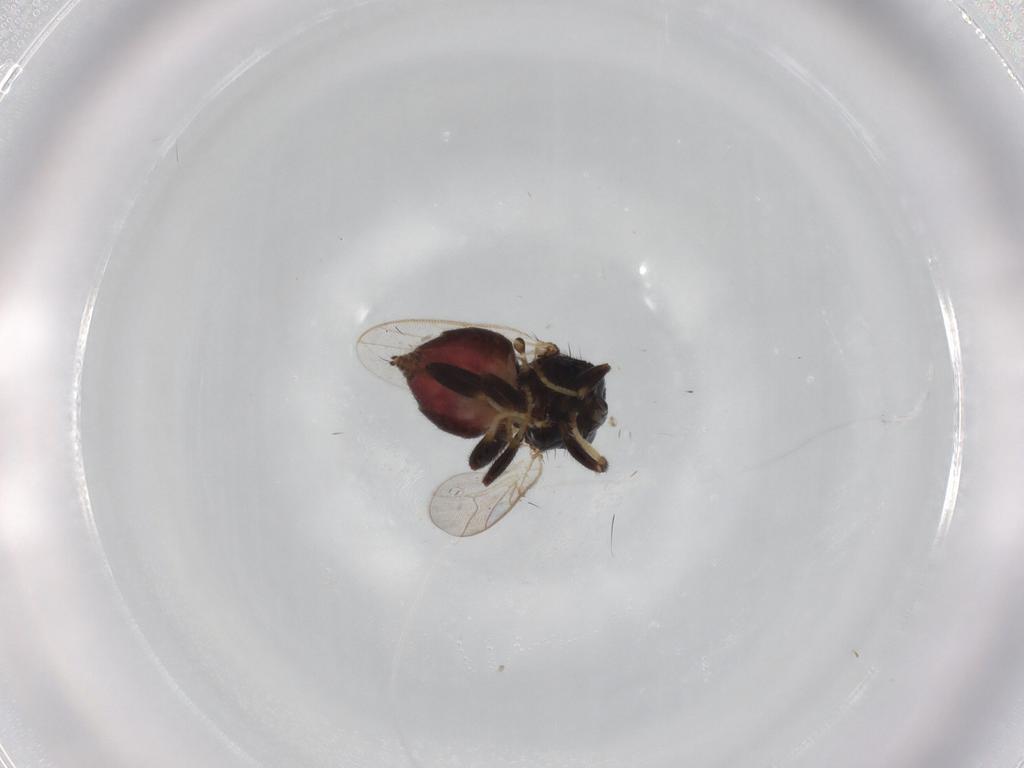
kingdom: Animalia
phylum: Arthropoda
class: Insecta
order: Diptera
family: Chloropidae
